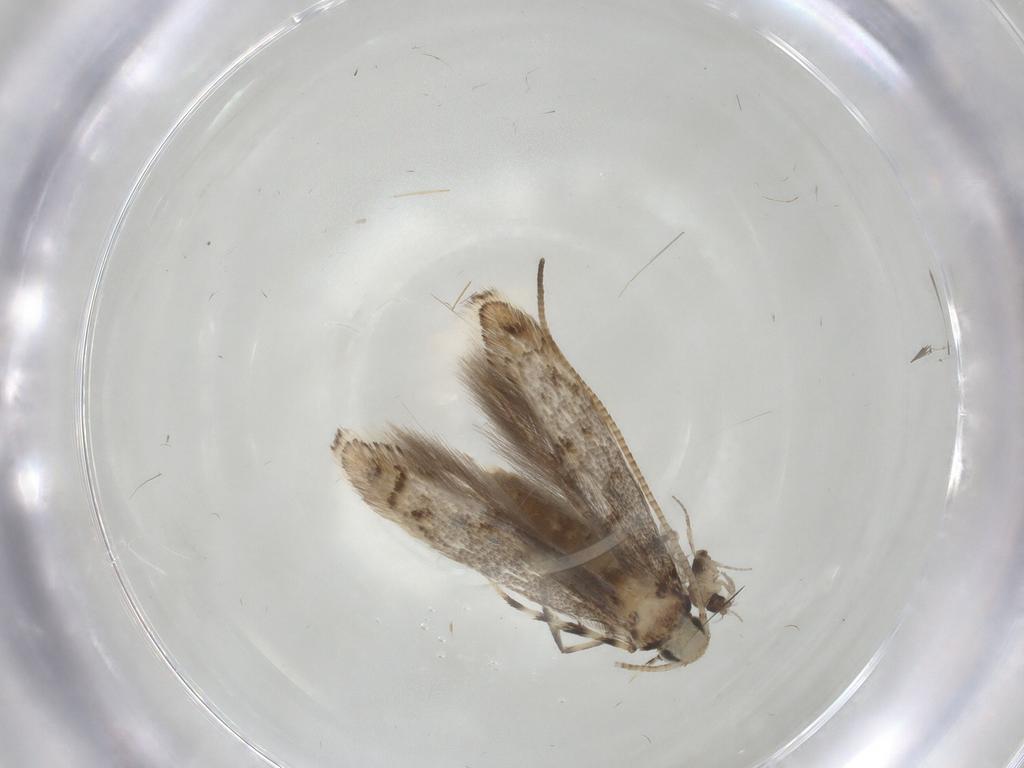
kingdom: Animalia
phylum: Arthropoda
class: Insecta
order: Lepidoptera
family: Gracillariidae
